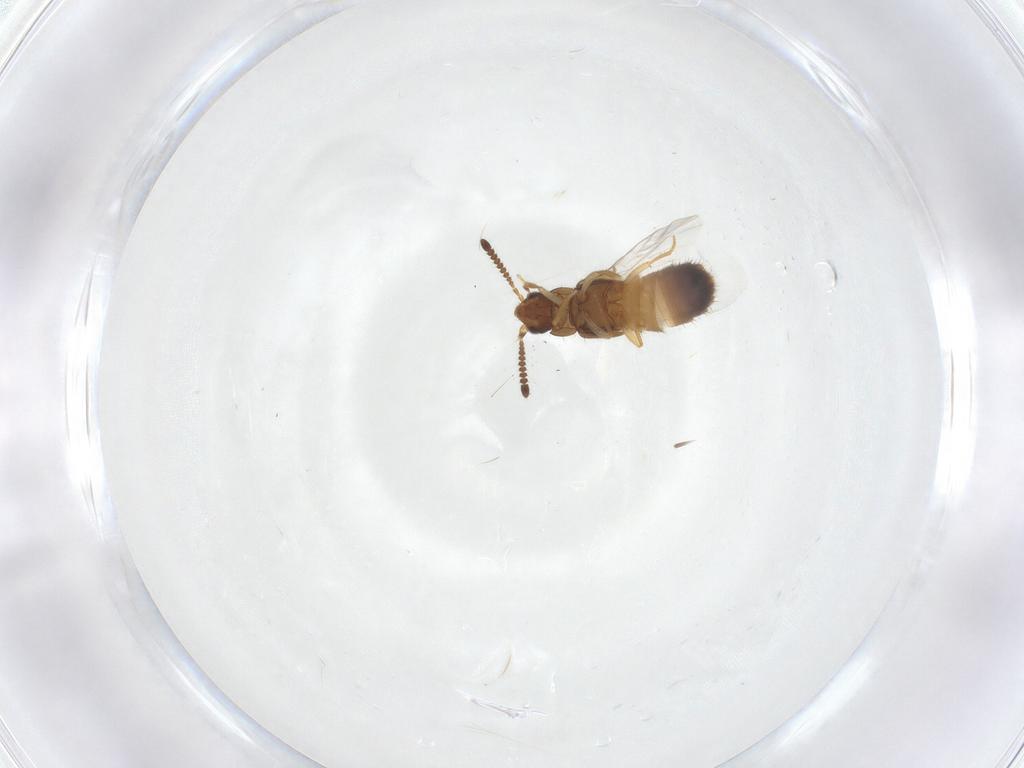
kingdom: Animalia
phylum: Arthropoda
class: Insecta
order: Coleoptera
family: Staphylinidae
